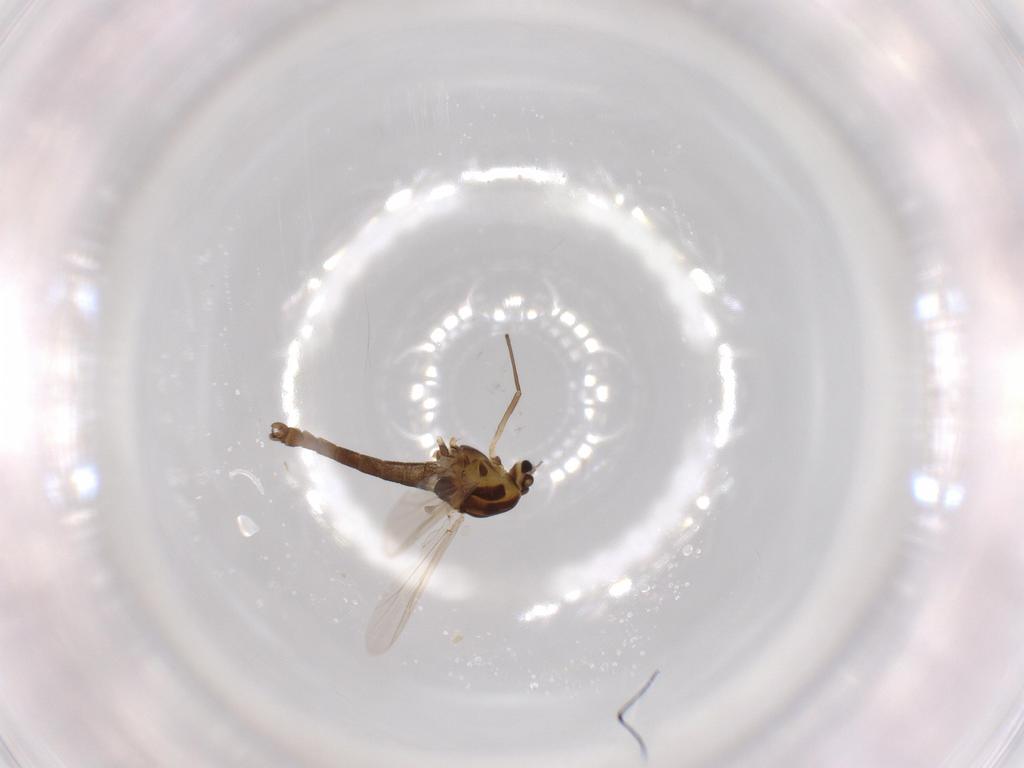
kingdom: Animalia
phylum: Arthropoda
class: Insecta
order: Diptera
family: Chironomidae
